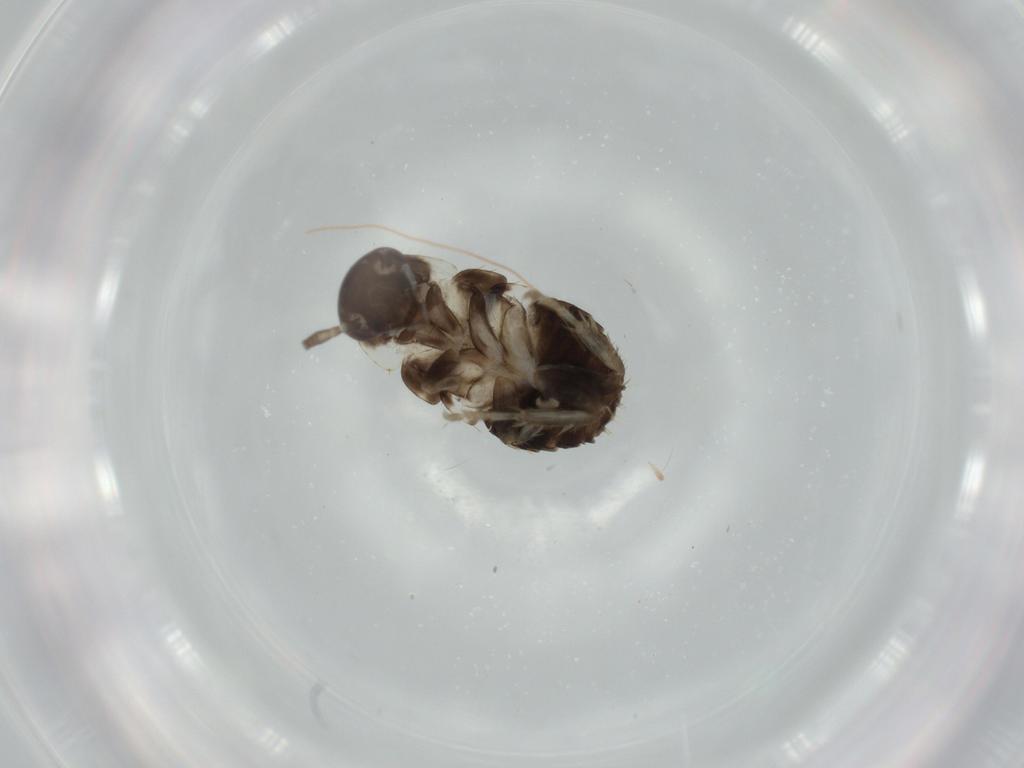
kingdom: Animalia
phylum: Arthropoda
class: Insecta
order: Blattodea
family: Ectobiidae
